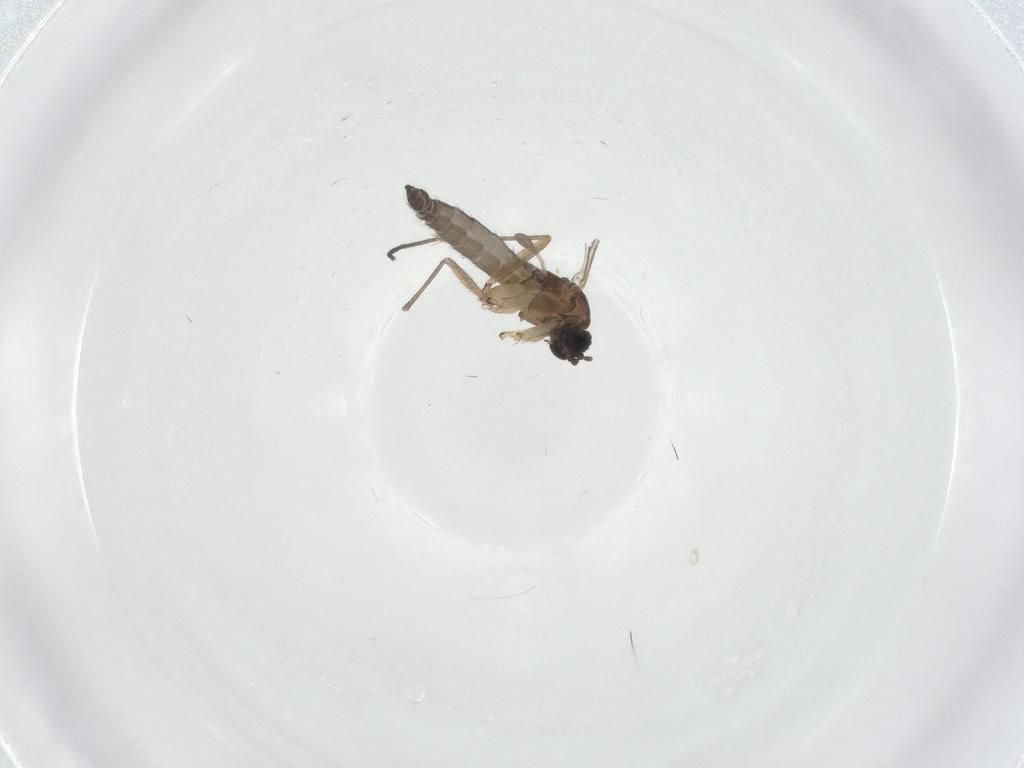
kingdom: Animalia
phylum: Arthropoda
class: Insecta
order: Diptera
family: Sciaridae
